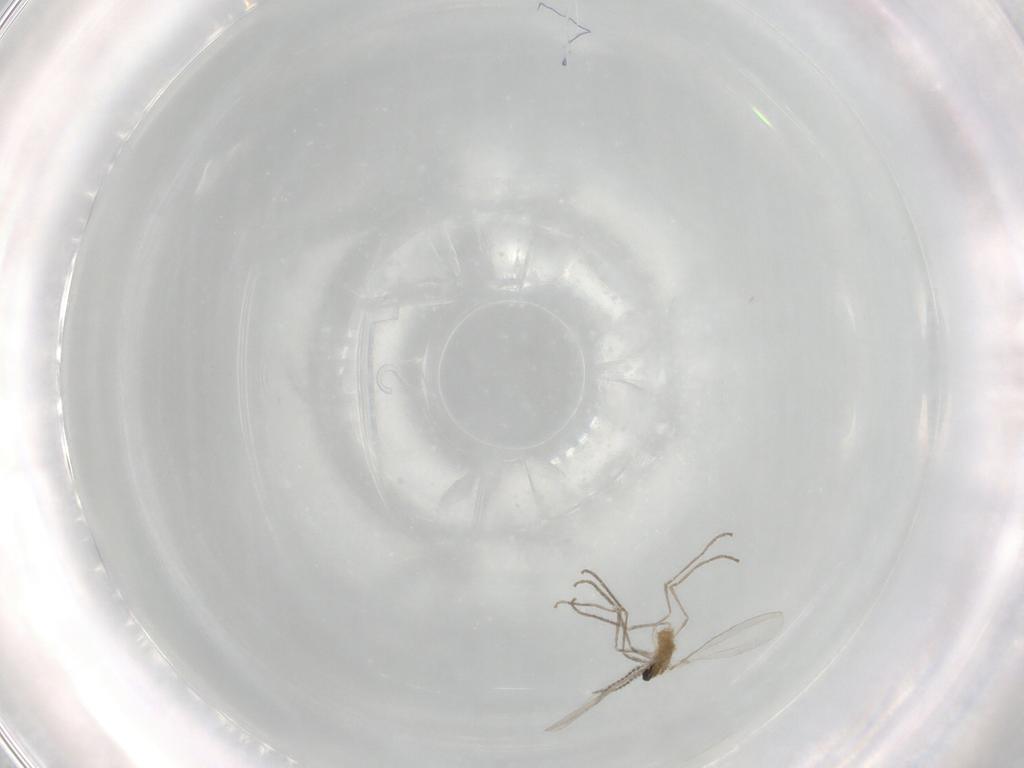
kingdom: Animalia
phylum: Arthropoda
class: Insecta
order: Diptera
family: Cecidomyiidae
